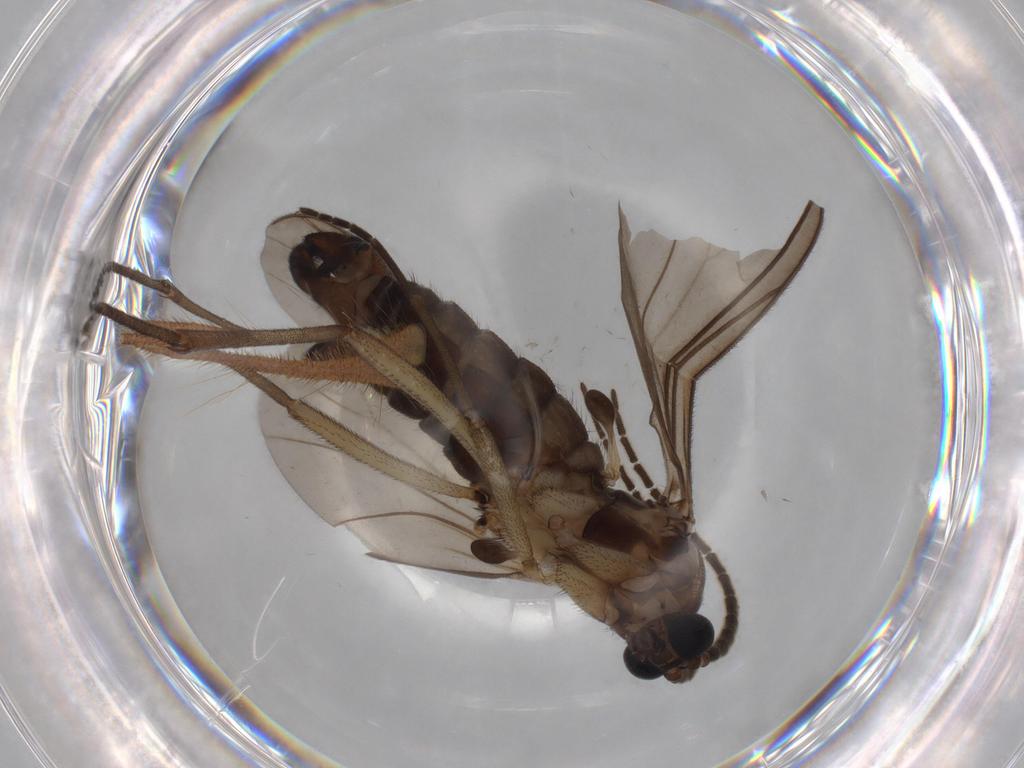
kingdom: Animalia
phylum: Arthropoda
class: Insecta
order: Diptera
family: Hybotidae
